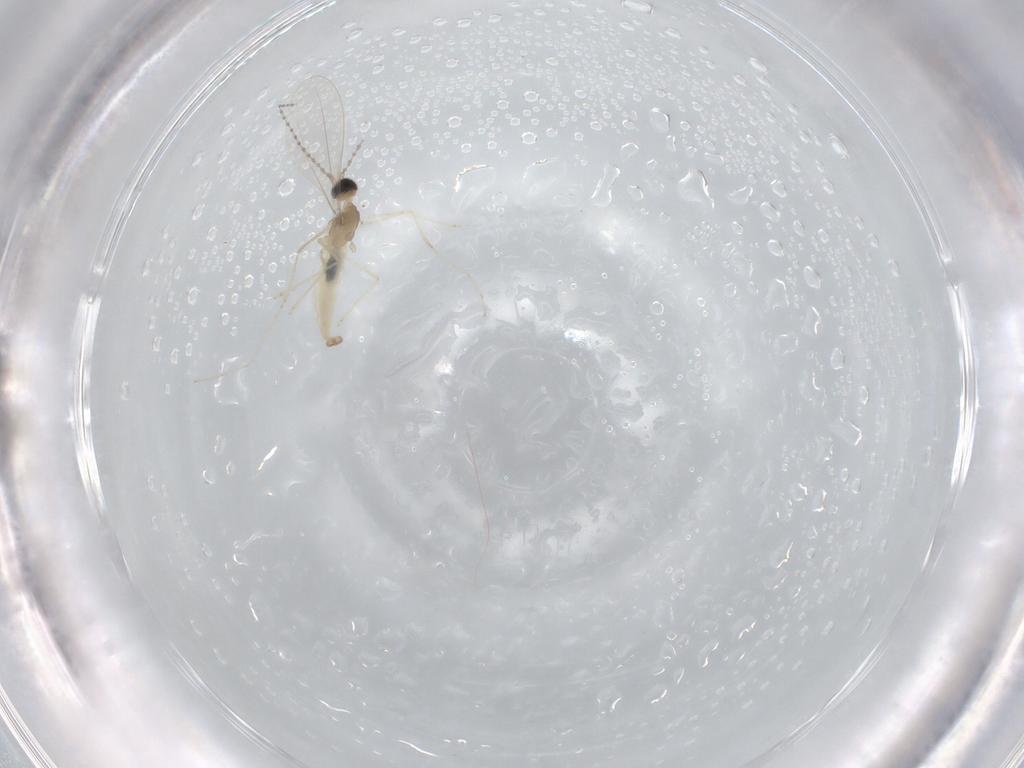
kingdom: Animalia
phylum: Arthropoda
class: Insecta
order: Diptera
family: Cecidomyiidae
